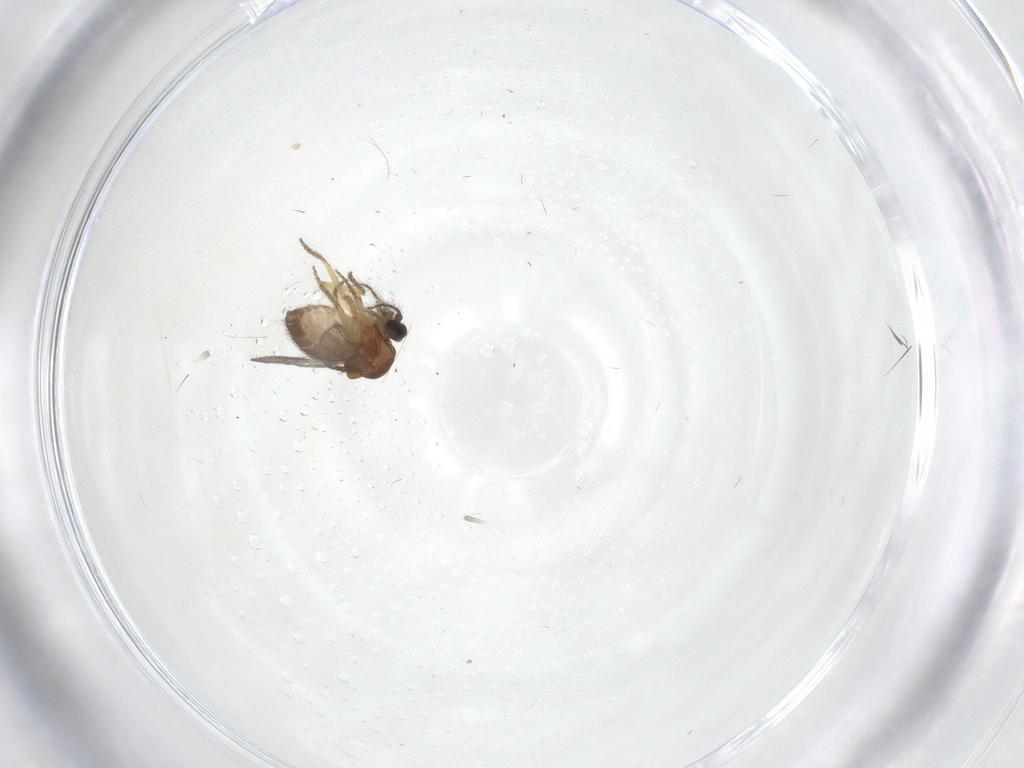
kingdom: Animalia
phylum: Arthropoda
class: Insecta
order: Diptera
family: Ceratopogonidae
